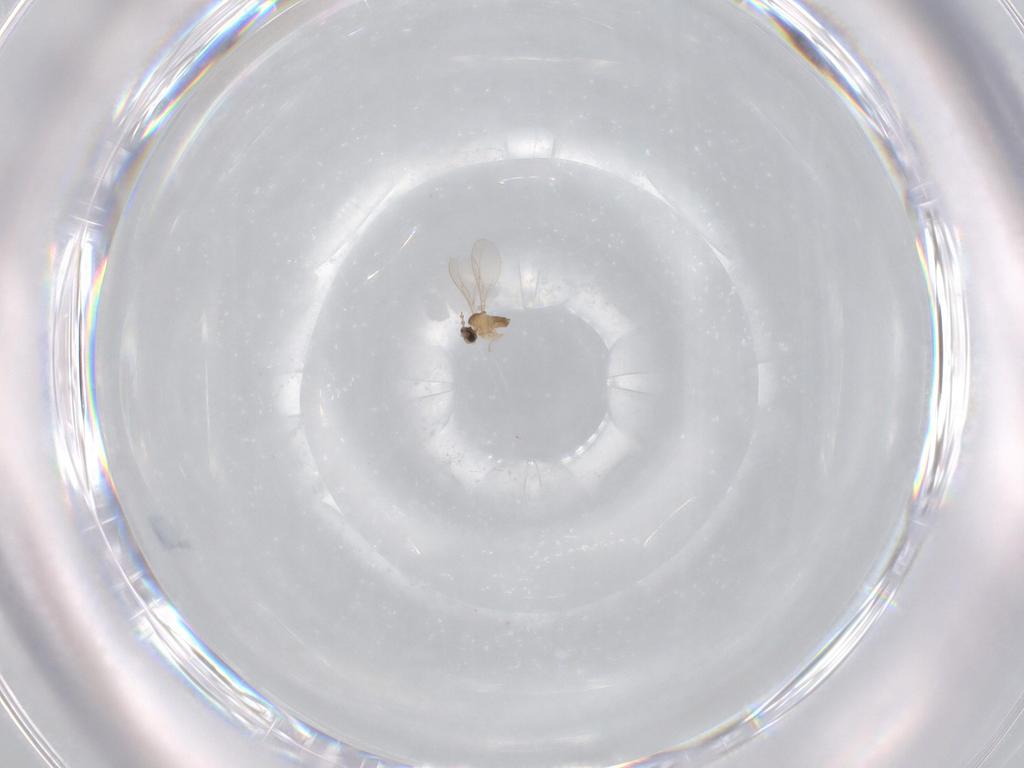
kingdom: Animalia
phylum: Arthropoda
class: Insecta
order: Diptera
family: Cecidomyiidae
